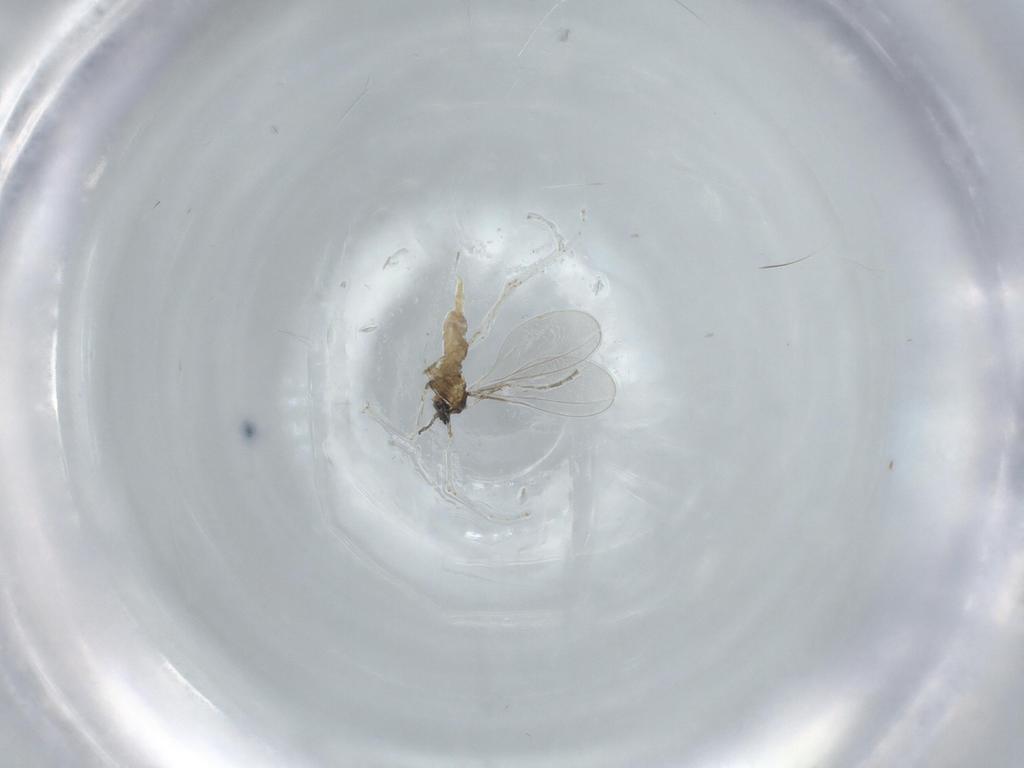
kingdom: Animalia
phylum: Arthropoda
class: Insecta
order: Diptera
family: Cecidomyiidae
